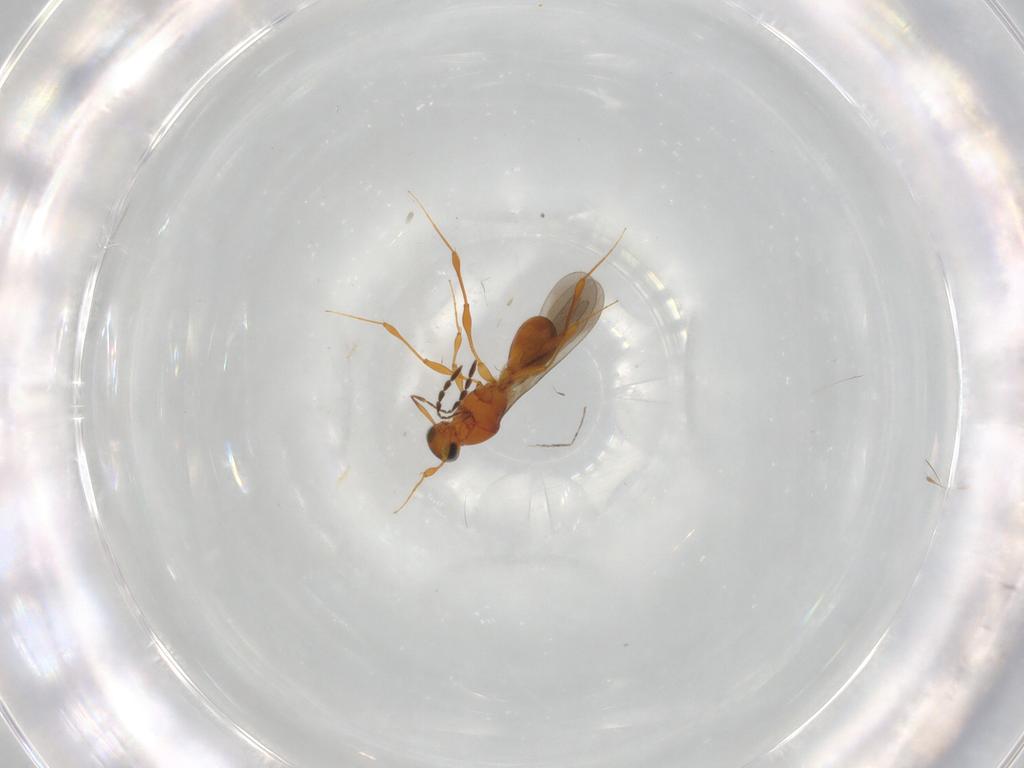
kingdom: Animalia
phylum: Arthropoda
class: Insecta
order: Hymenoptera
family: Platygastridae
